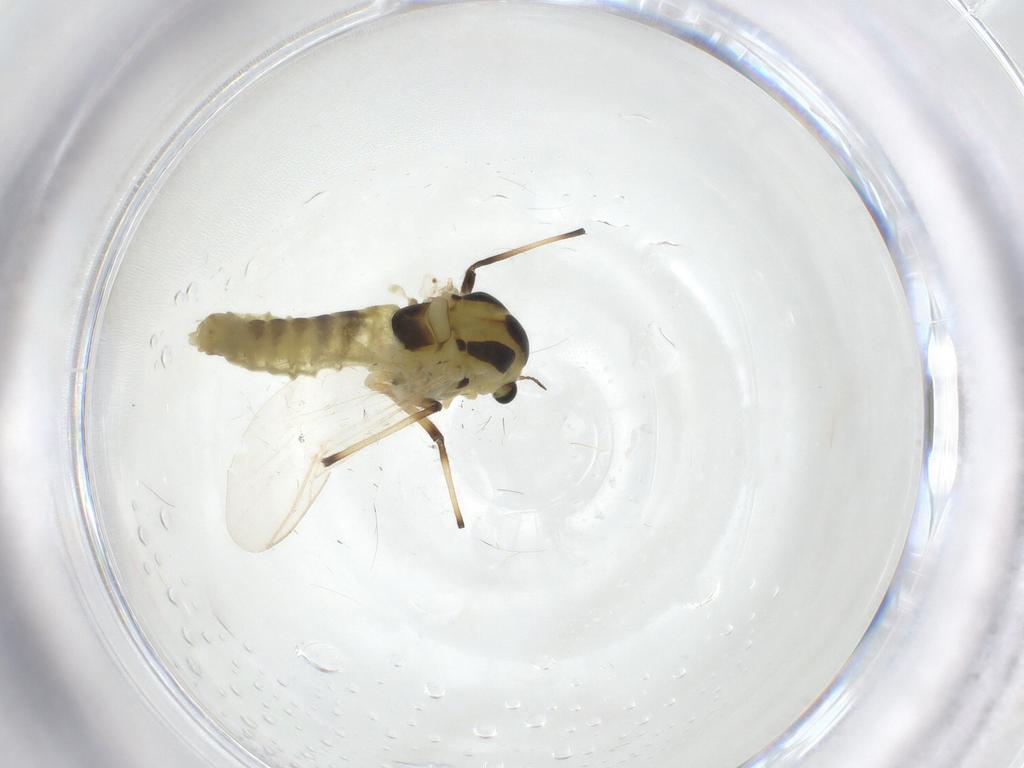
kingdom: Animalia
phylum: Arthropoda
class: Insecta
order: Diptera
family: Chironomidae
